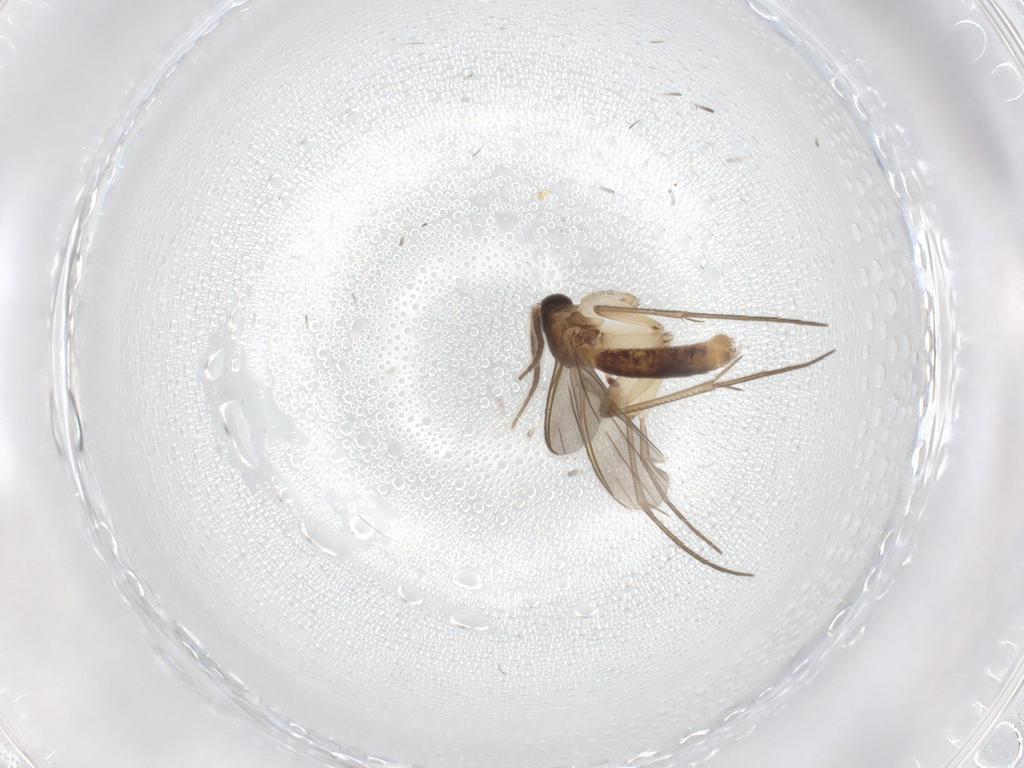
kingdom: Animalia
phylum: Arthropoda
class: Insecta
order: Diptera
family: Mycetophilidae
